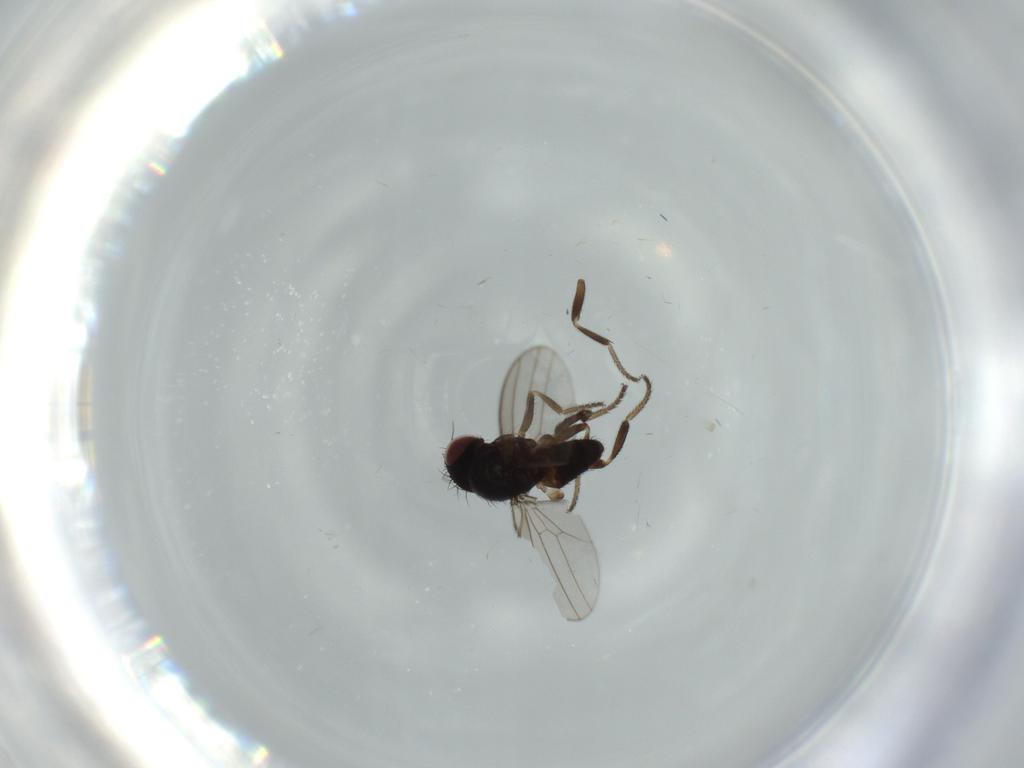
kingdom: Animalia
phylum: Arthropoda
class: Insecta
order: Diptera
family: Milichiidae
